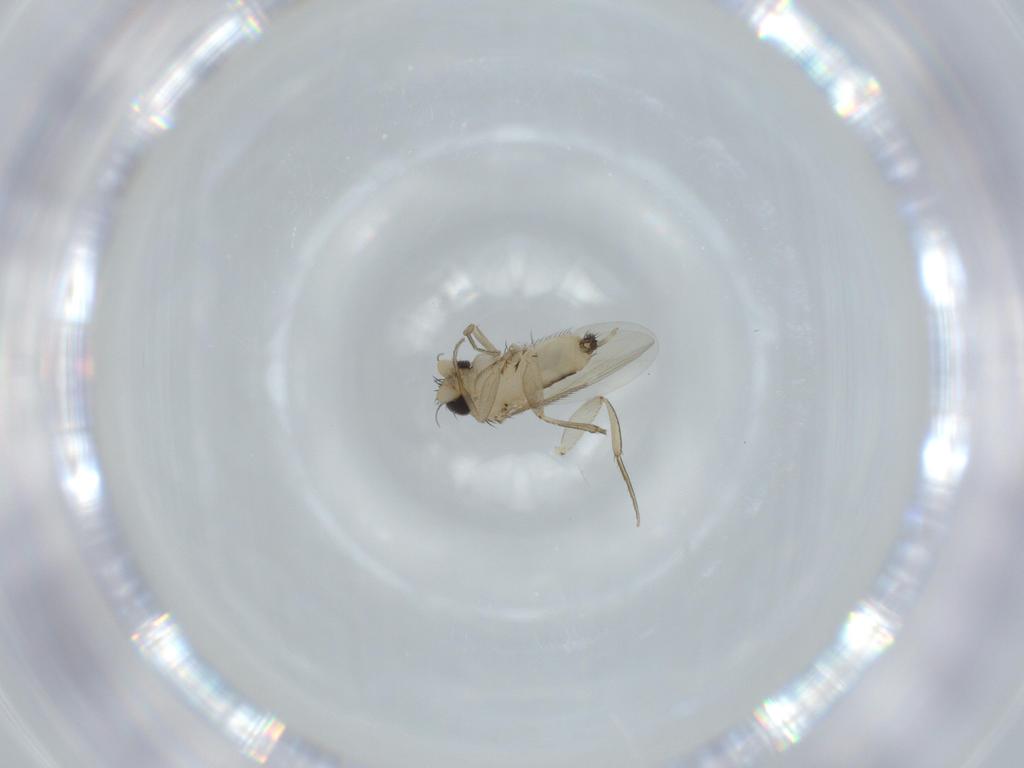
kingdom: Animalia
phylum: Arthropoda
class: Insecta
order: Diptera
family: Phoridae
